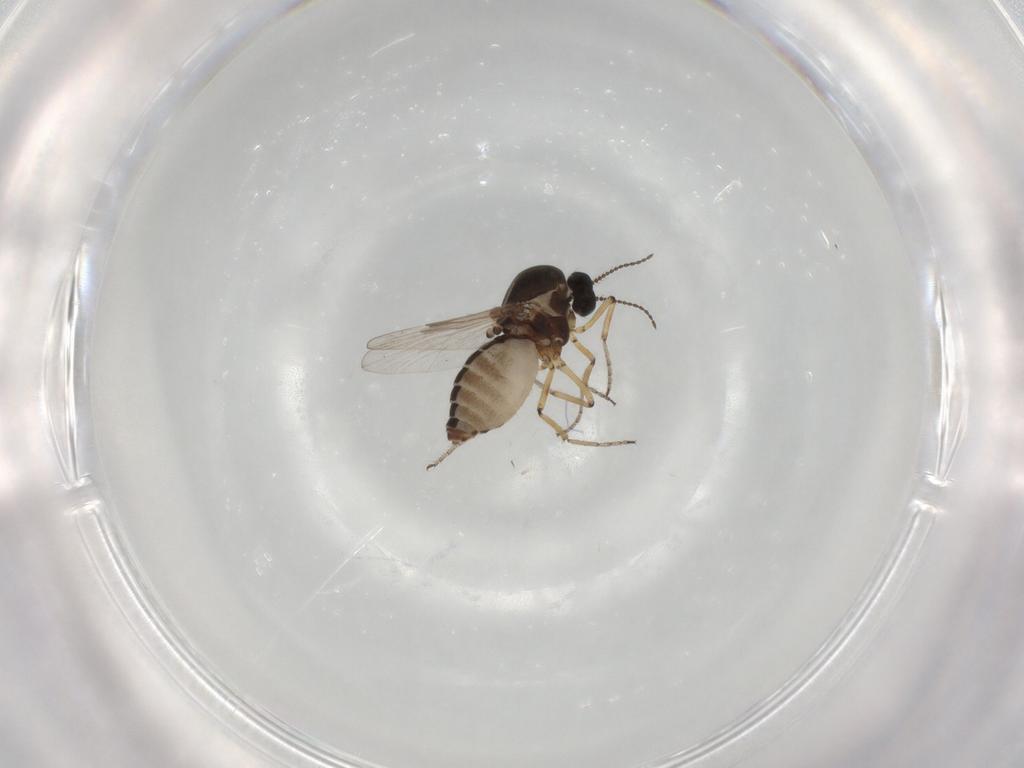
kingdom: Animalia
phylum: Arthropoda
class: Insecta
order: Diptera
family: Ceratopogonidae
